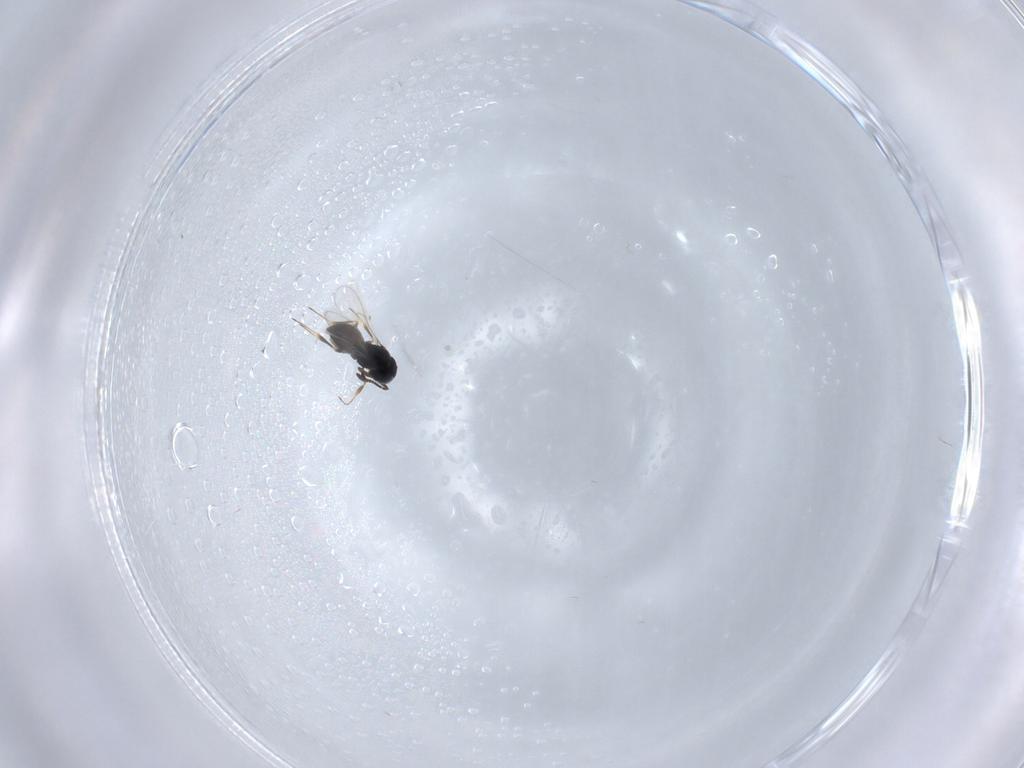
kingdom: Animalia
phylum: Arthropoda
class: Insecta
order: Hymenoptera
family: Scelionidae
